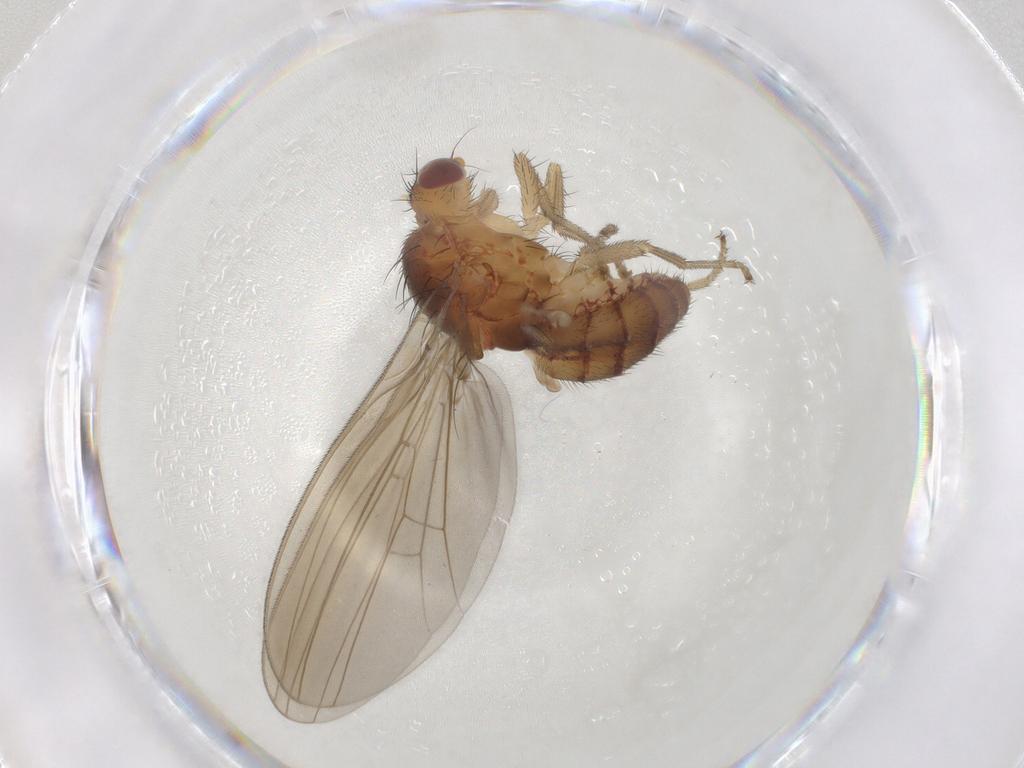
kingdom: Animalia
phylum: Arthropoda
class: Insecta
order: Diptera
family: Natalimyzidae
